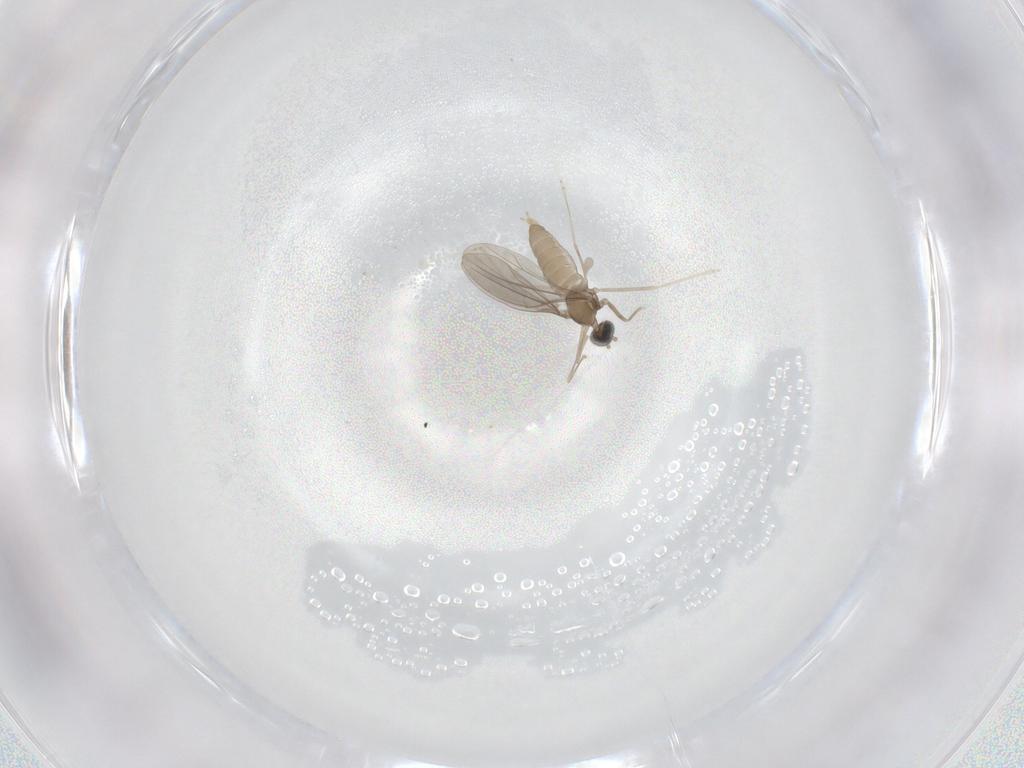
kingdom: Animalia
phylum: Arthropoda
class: Insecta
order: Diptera
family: Cecidomyiidae
